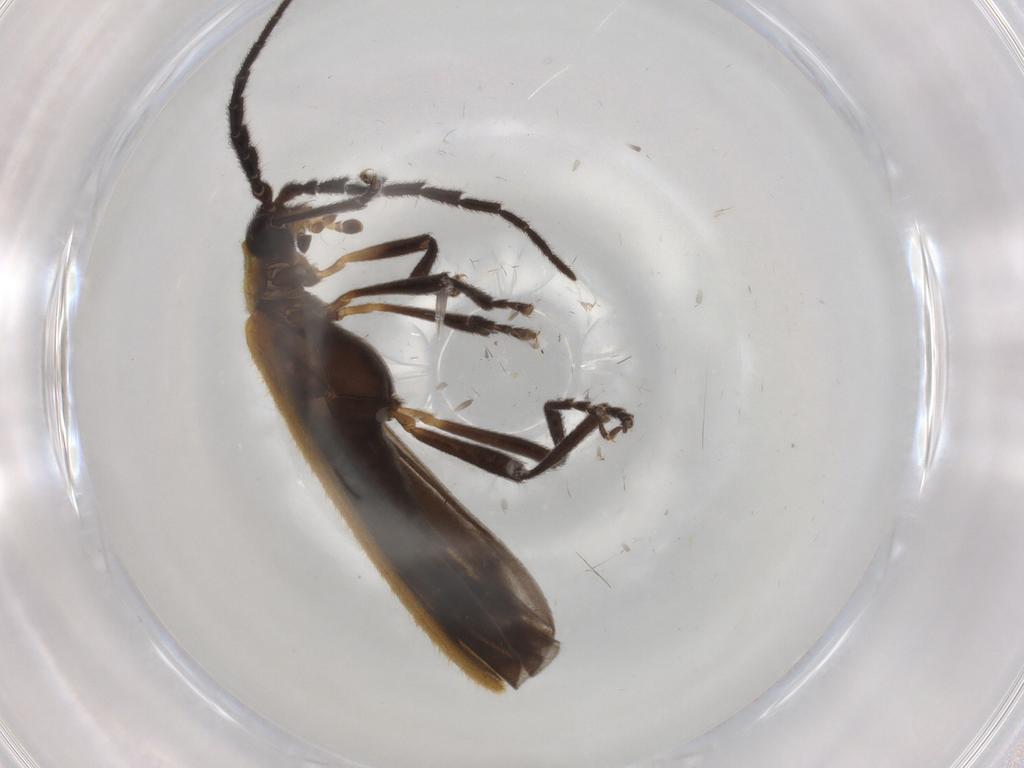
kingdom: Animalia
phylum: Arthropoda
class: Insecta
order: Coleoptera
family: Lycidae
